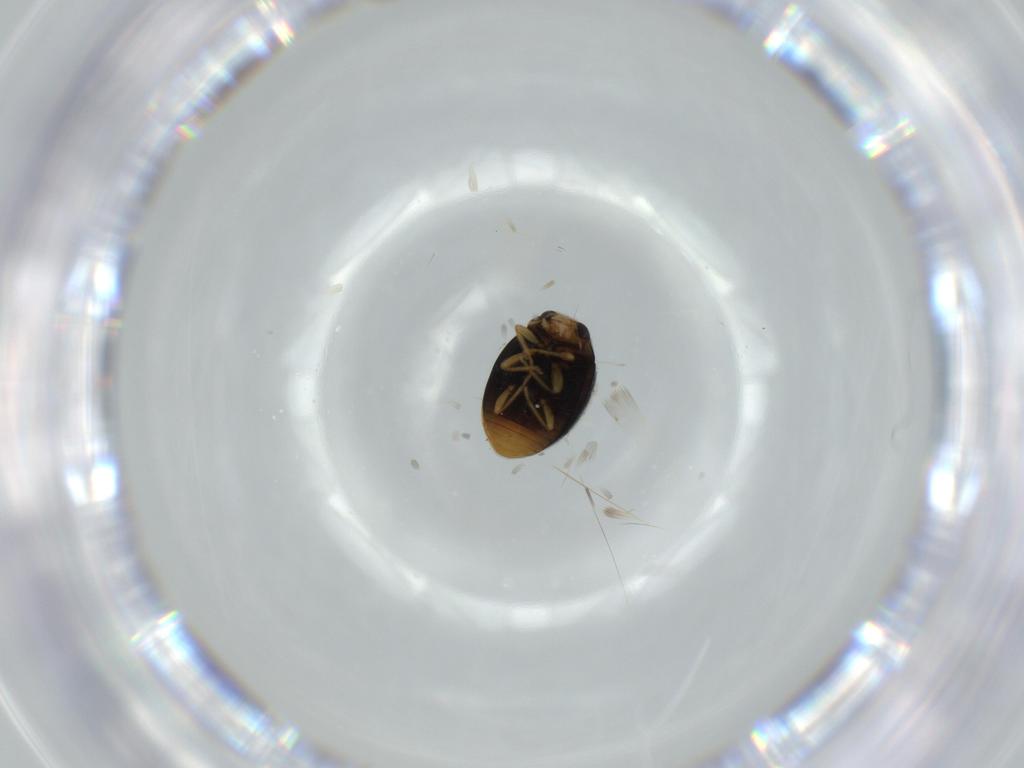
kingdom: Animalia
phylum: Arthropoda
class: Insecta
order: Coleoptera
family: Coccinellidae
